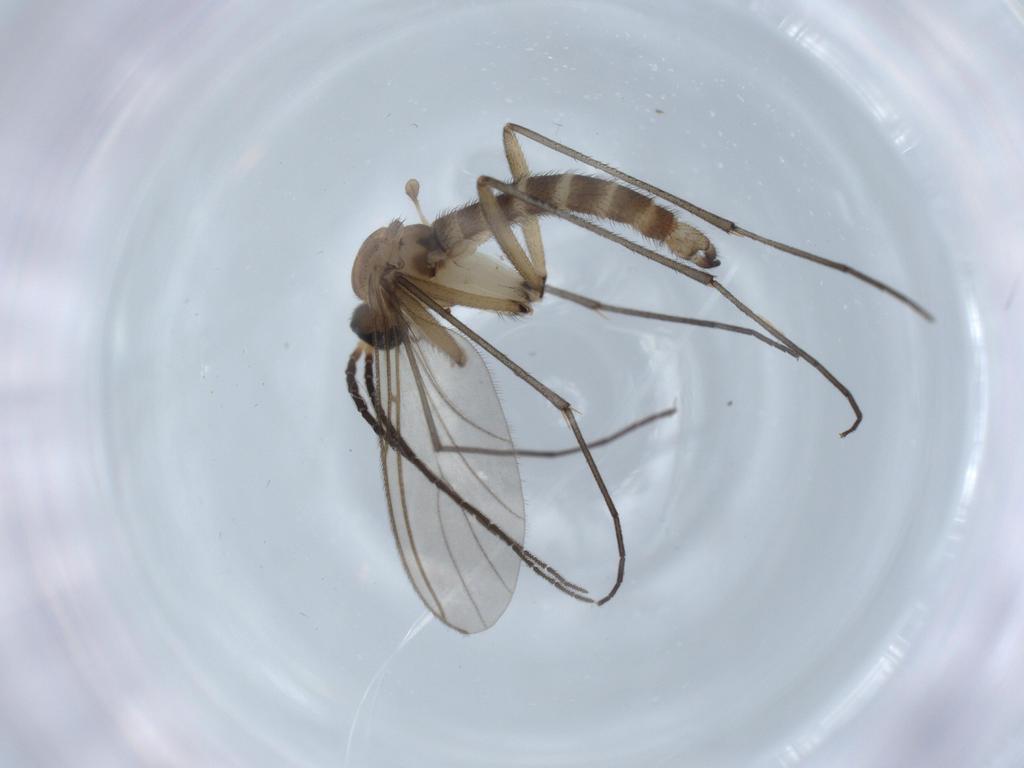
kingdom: Animalia
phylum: Arthropoda
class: Insecta
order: Diptera
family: Sciaridae
